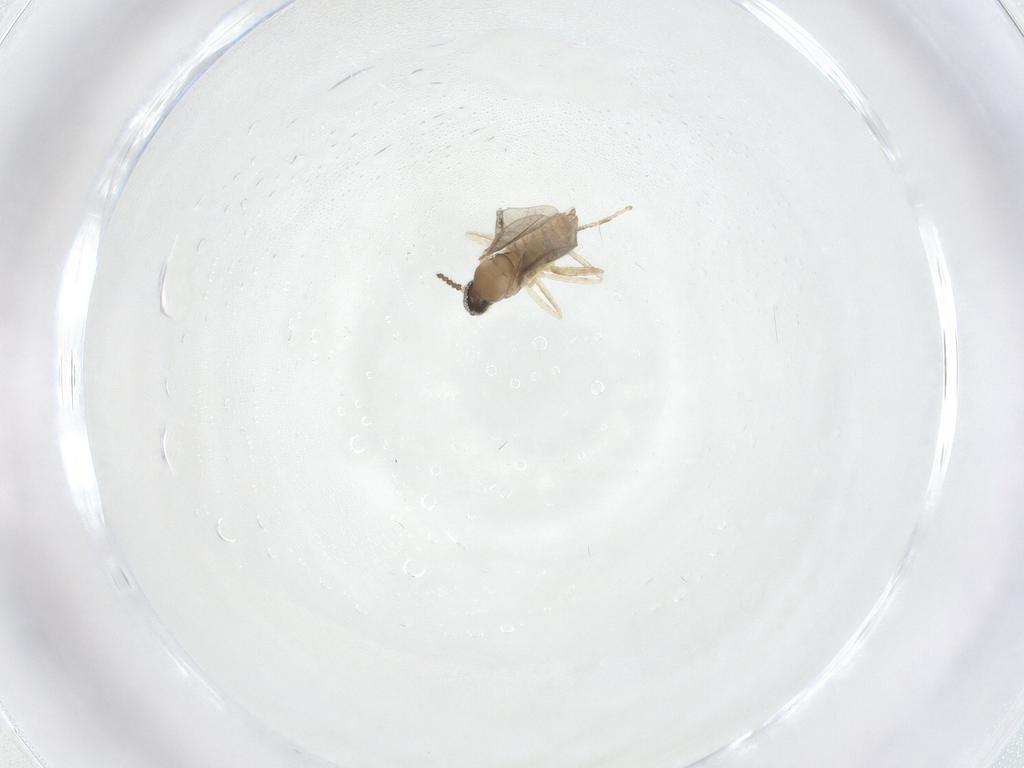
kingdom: Animalia
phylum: Arthropoda
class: Insecta
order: Diptera
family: Cecidomyiidae
